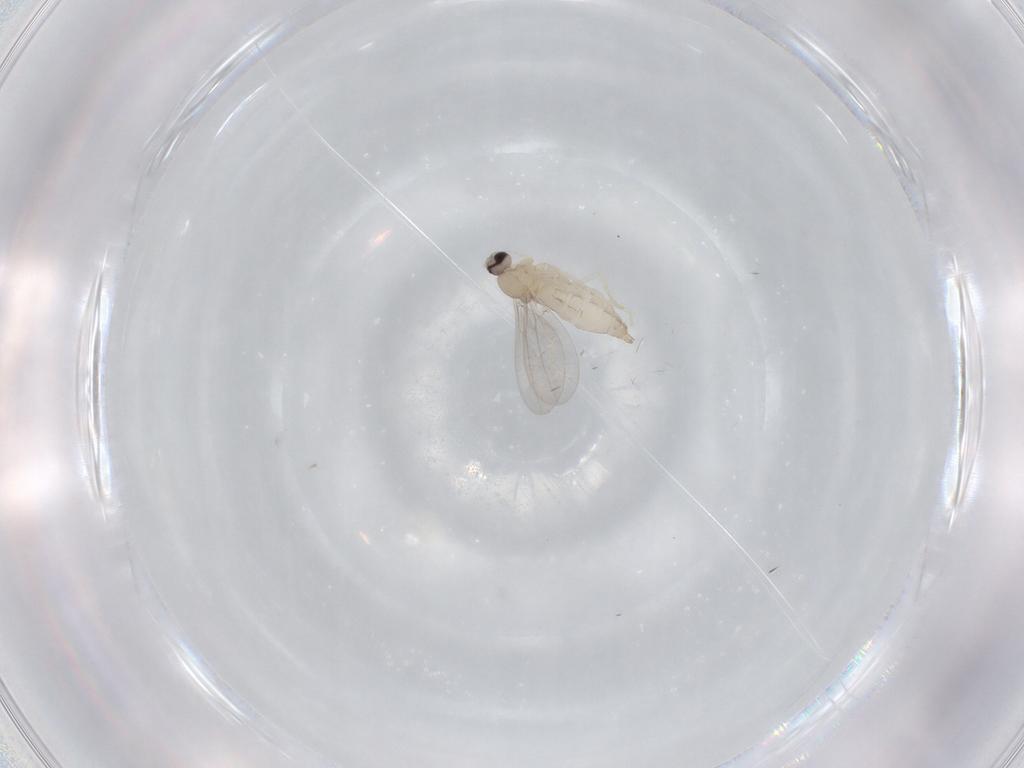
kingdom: Animalia
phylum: Arthropoda
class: Insecta
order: Diptera
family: Cecidomyiidae
